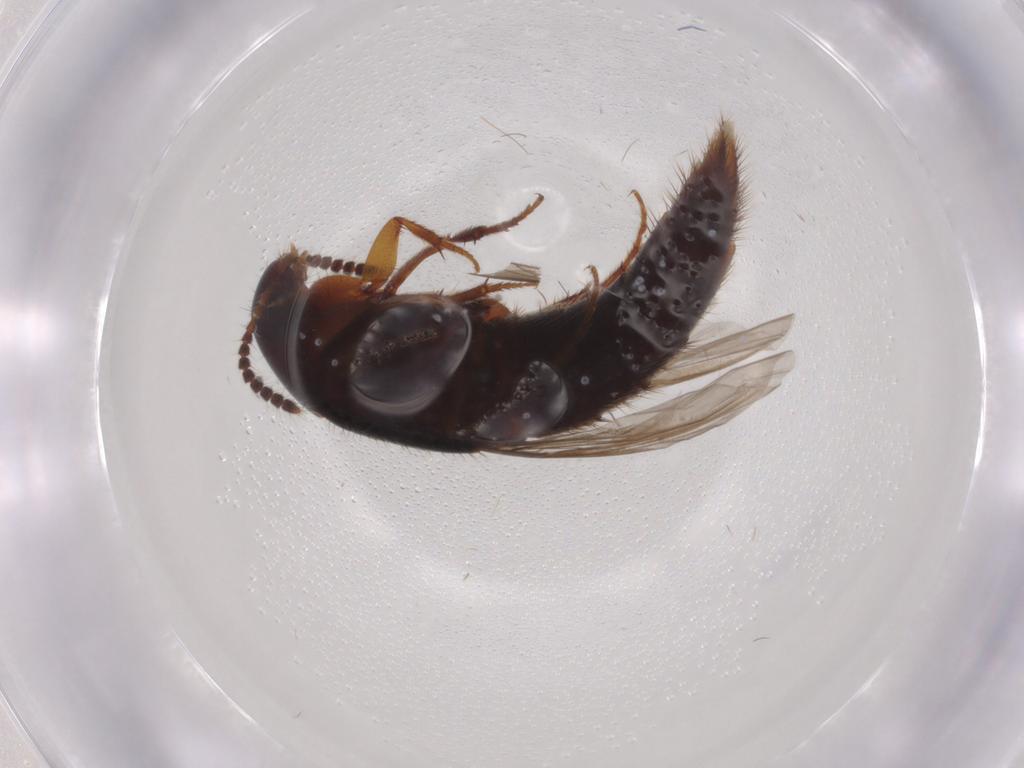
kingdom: Animalia
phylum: Arthropoda
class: Insecta
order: Coleoptera
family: Staphylinidae
